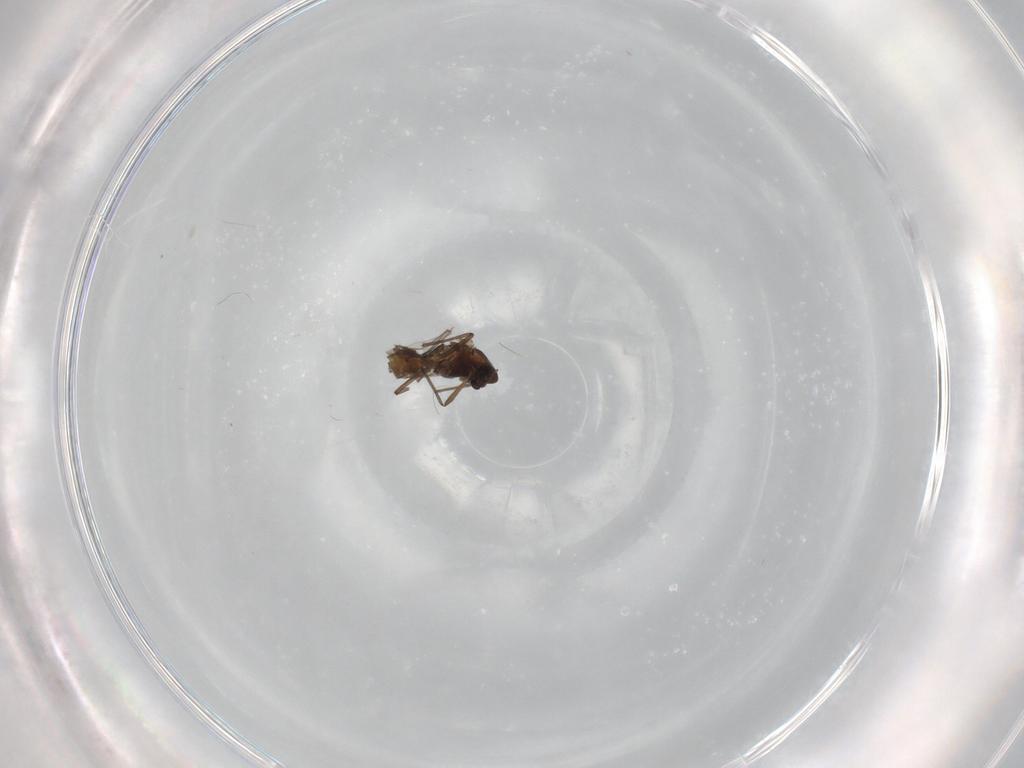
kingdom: Animalia
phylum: Arthropoda
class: Insecta
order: Diptera
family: Chironomidae
